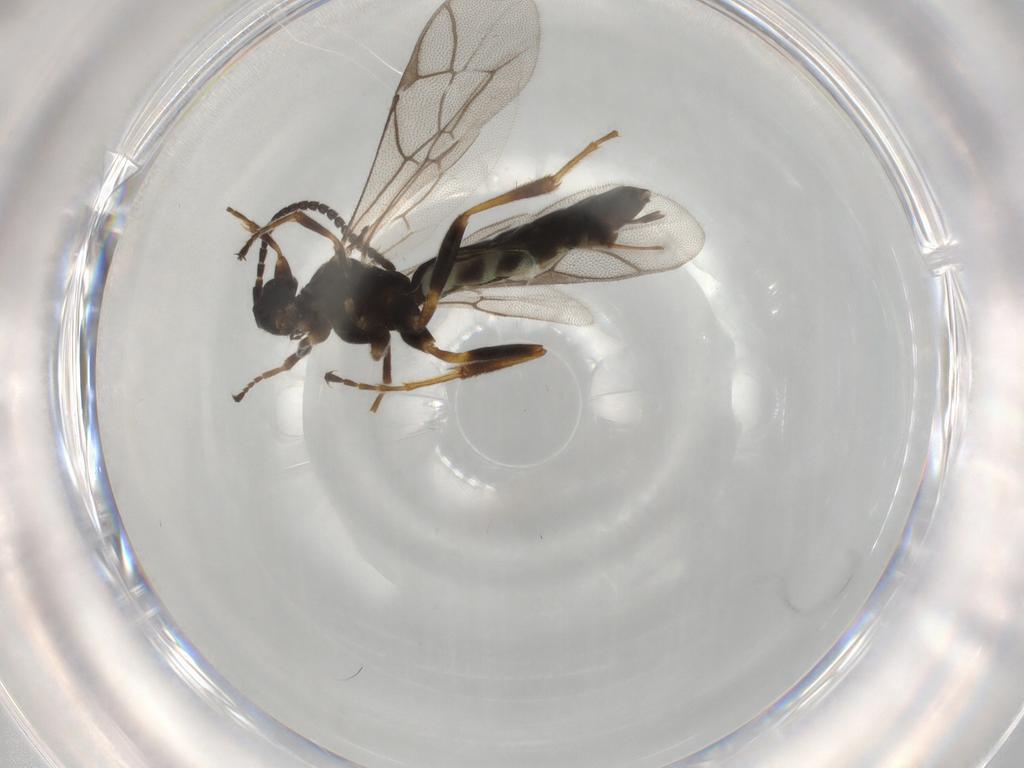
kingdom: Animalia
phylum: Arthropoda
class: Insecta
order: Hymenoptera
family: Ichneumonidae
